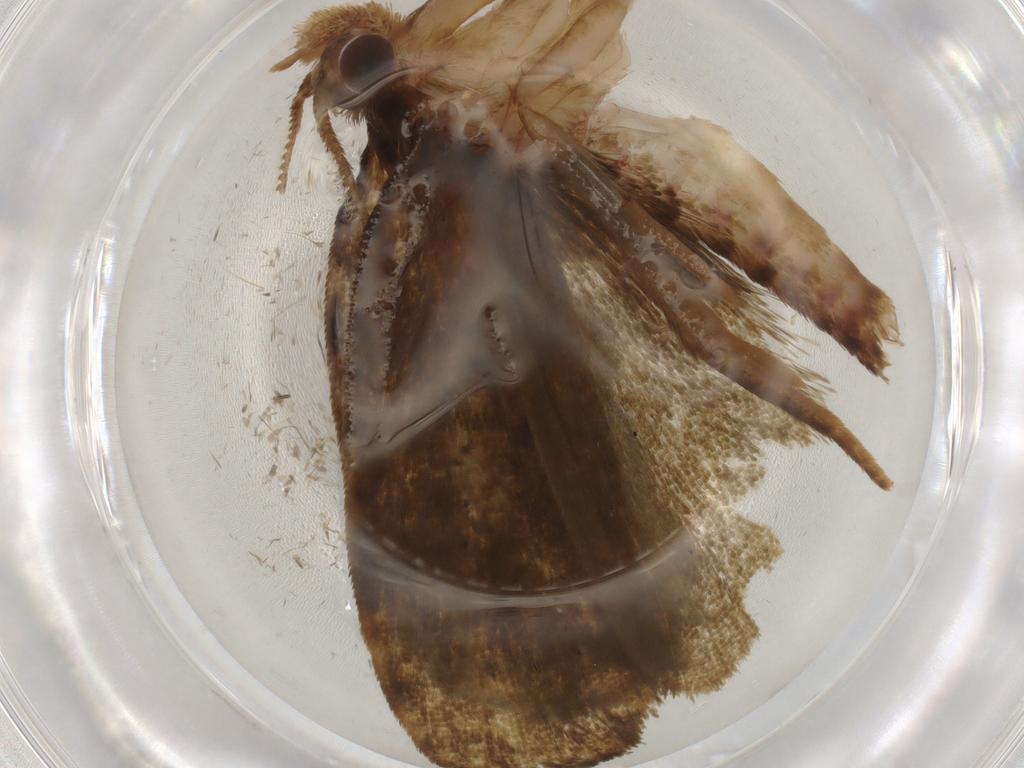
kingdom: Animalia
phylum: Arthropoda
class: Insecta
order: Lepidoptera
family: Geometridae
